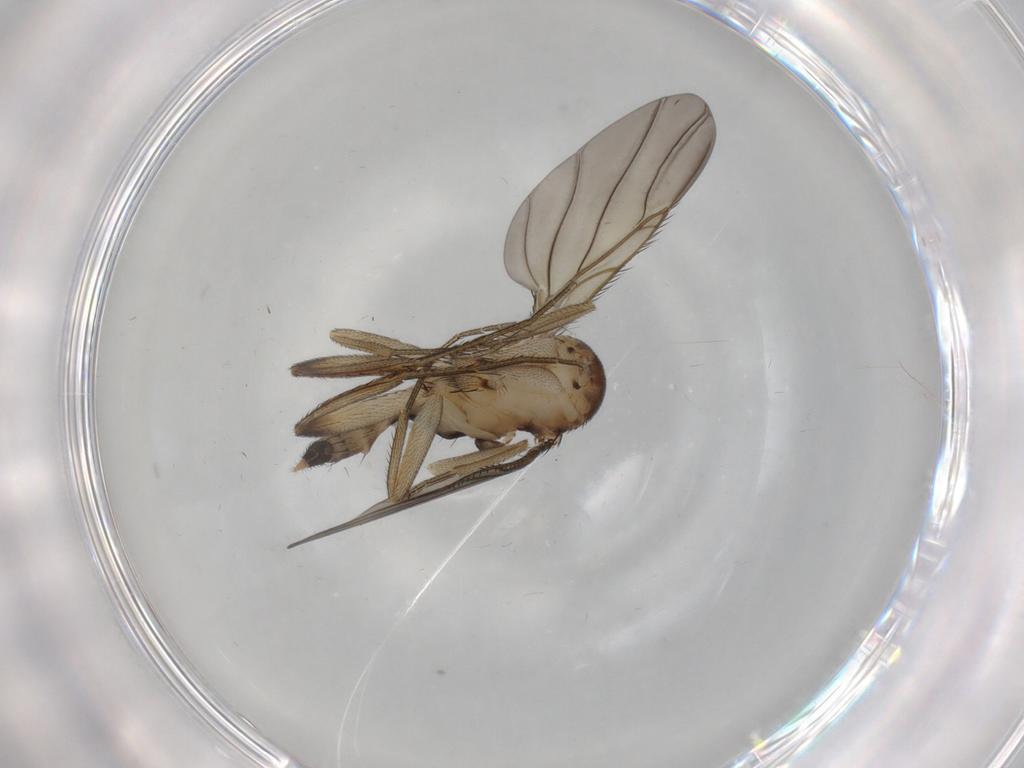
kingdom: Animalia
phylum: Arthropoda
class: Insecta
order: Diptera
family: Phoridae
